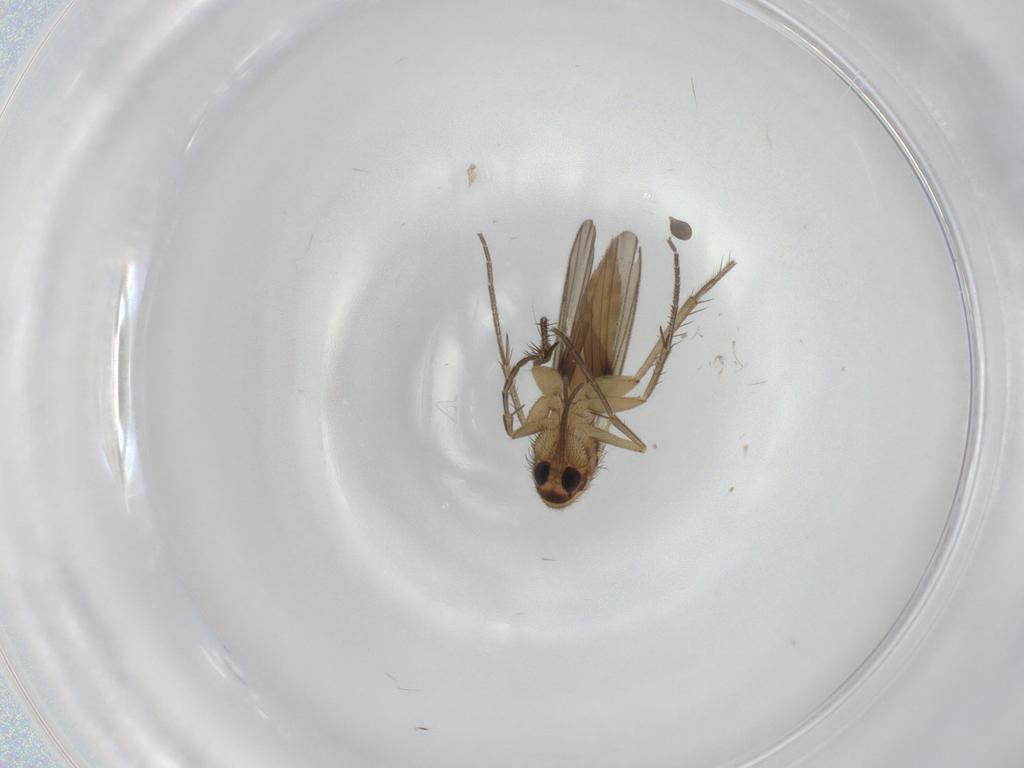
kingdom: Animalia
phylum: Arthropoda
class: Insecta
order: Diptera
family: Mycetophilidae
